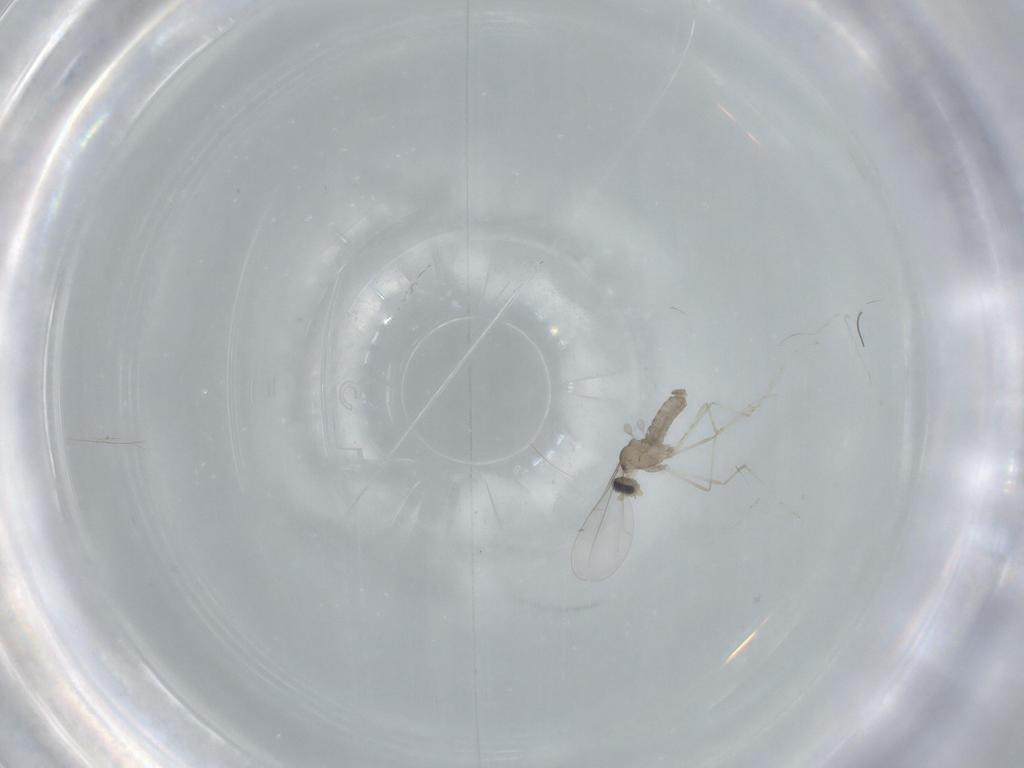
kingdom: Animalia
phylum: Arthropoda
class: Insecta
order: Diptera
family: Cecidomyiidae
